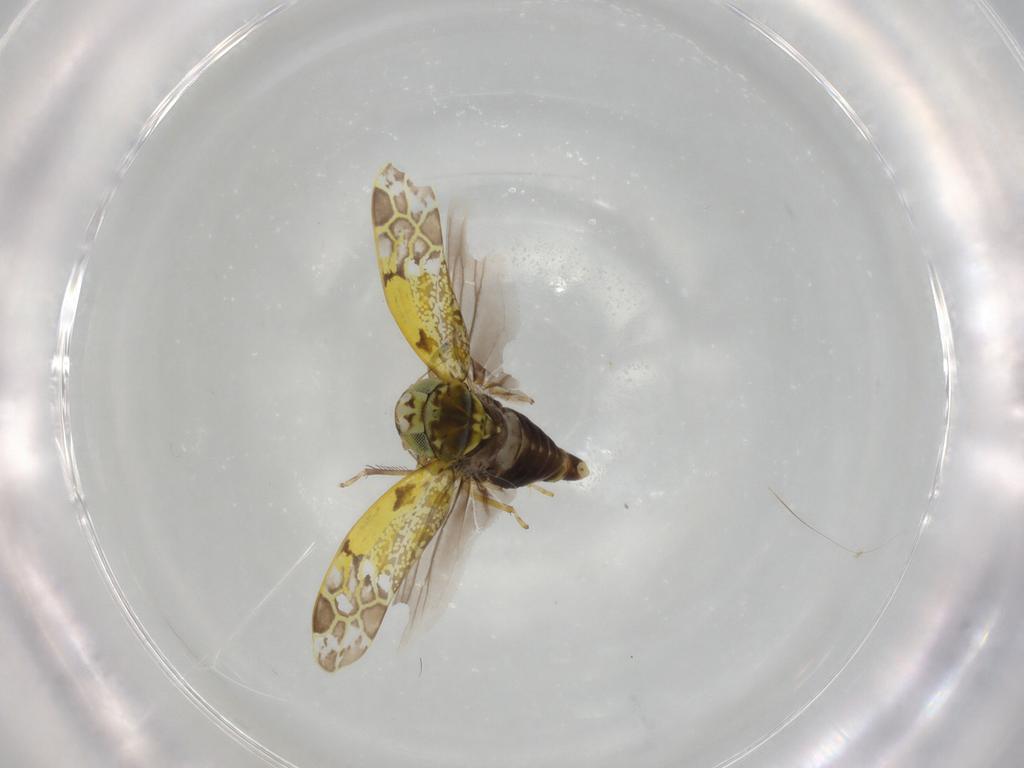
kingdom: Animalia
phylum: Arthropoda
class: Insecta
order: Hemiptera
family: Cicadellidae
